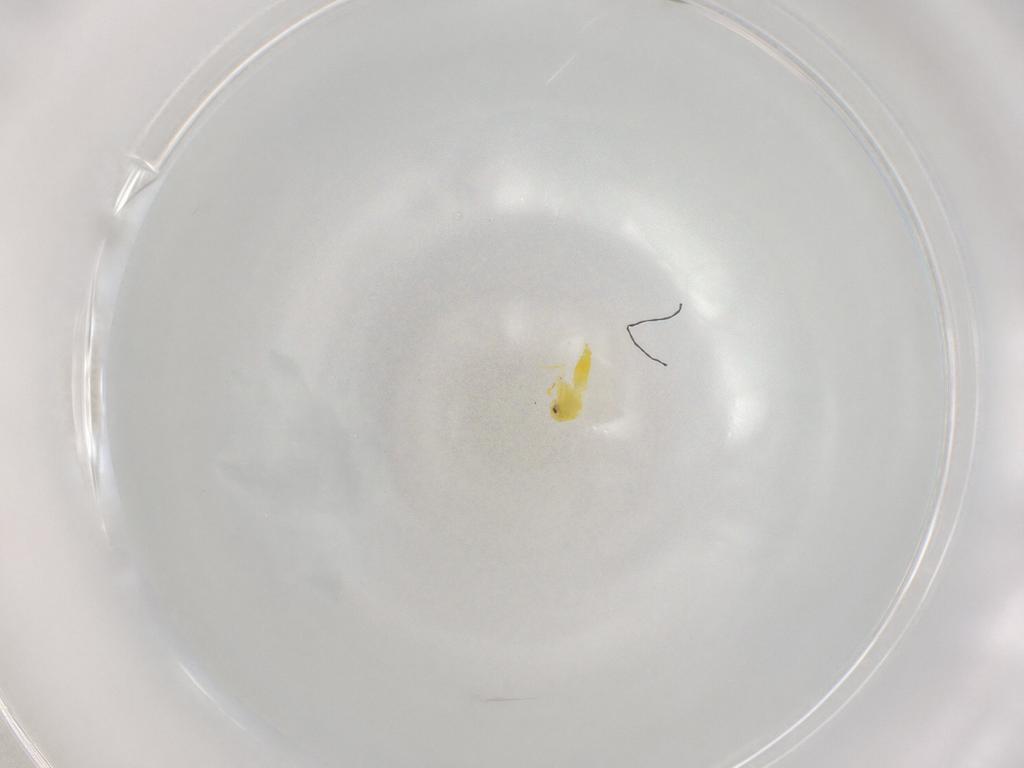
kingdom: Animalia
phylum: Arthropoda
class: Insecta
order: Hemiptera
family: Aleyrodidae
